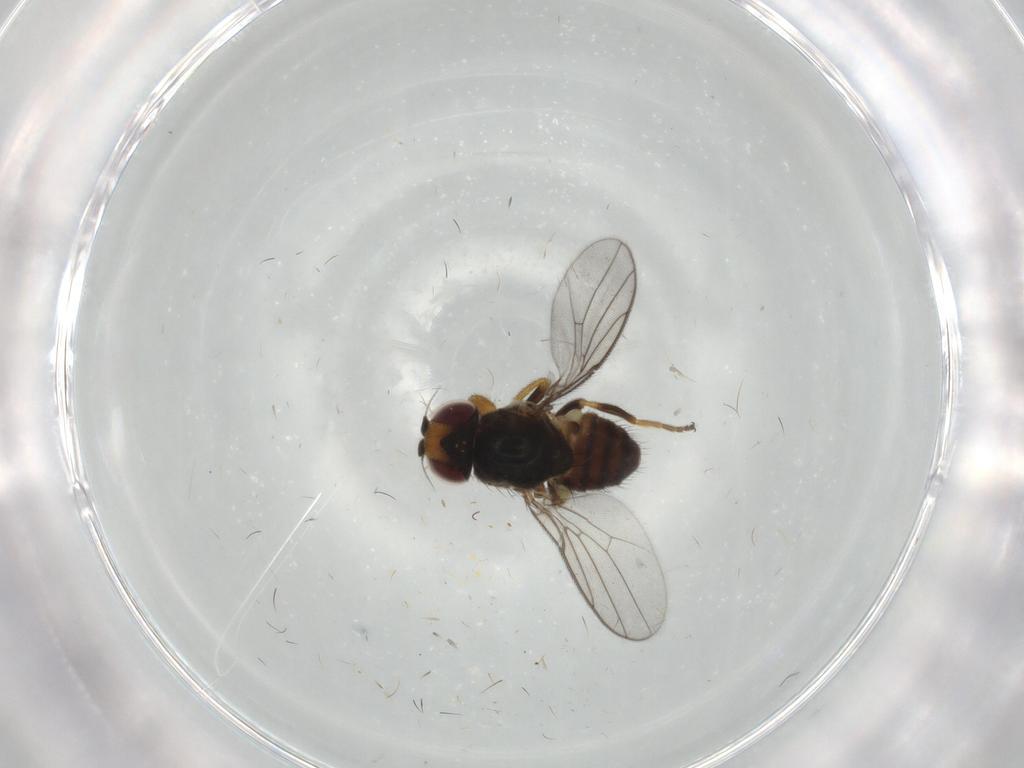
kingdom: Animalia
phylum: Arthropoda
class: Insecta
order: Diptera
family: Chloropidae
